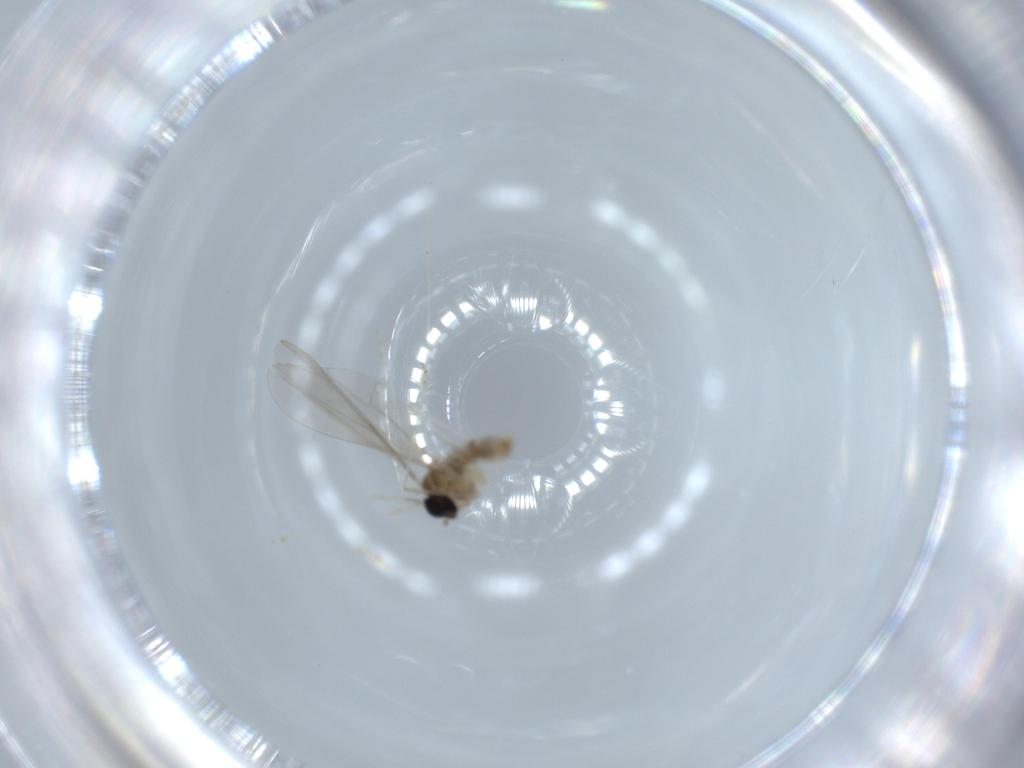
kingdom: Animalia
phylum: Arthropoda
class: Insecta
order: Diptera
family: Cecidomyiidae
